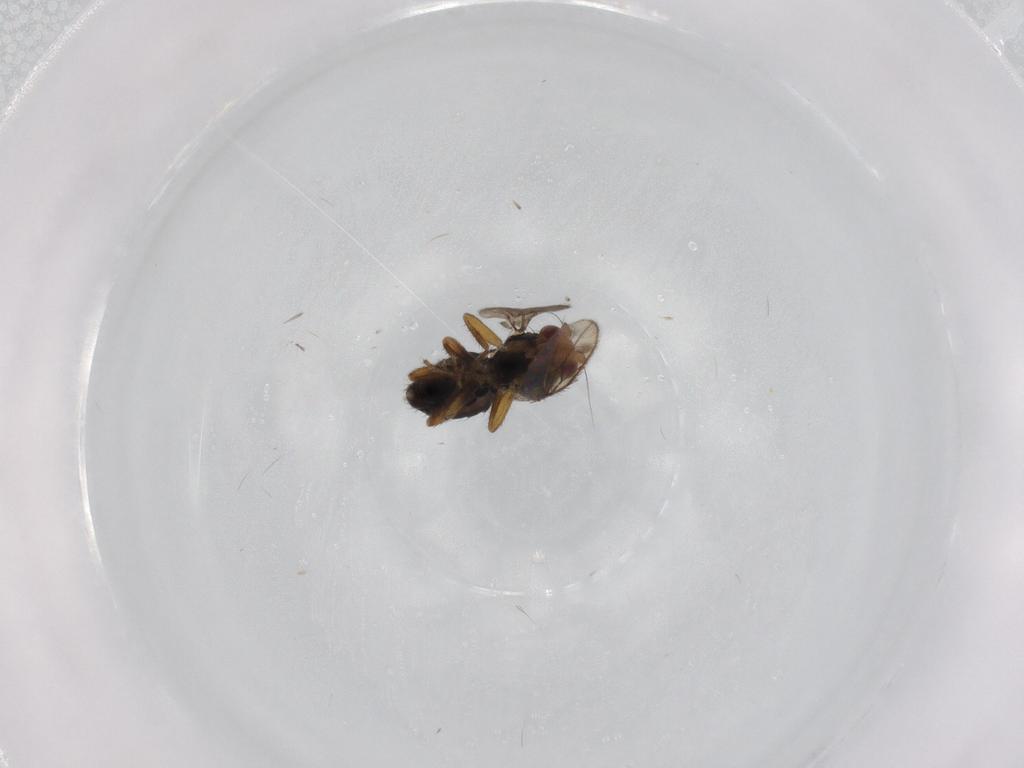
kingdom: Animalia
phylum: Arthropoda
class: Insecta
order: Diptera
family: Sphaeroceridae
